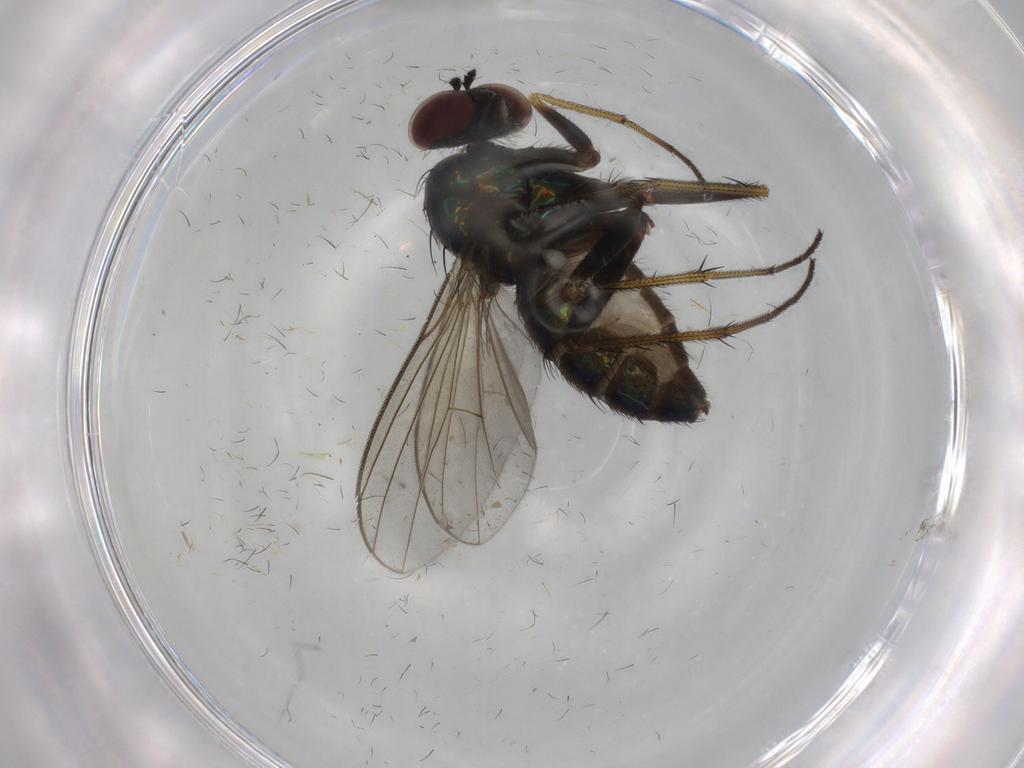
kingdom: Animalia
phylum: Arthropoda
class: Insecta
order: Diptera
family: Dolichopodidae
